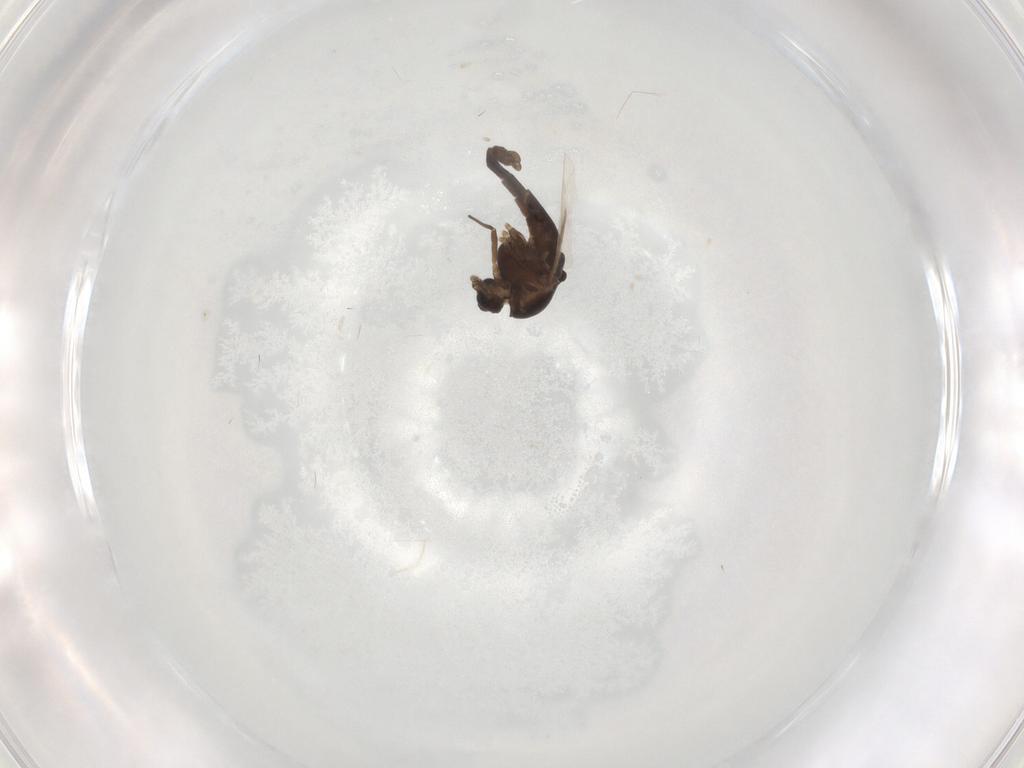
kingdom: Animalia
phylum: Arthropoda
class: Insecta
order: Diptera
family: Chironomidae
